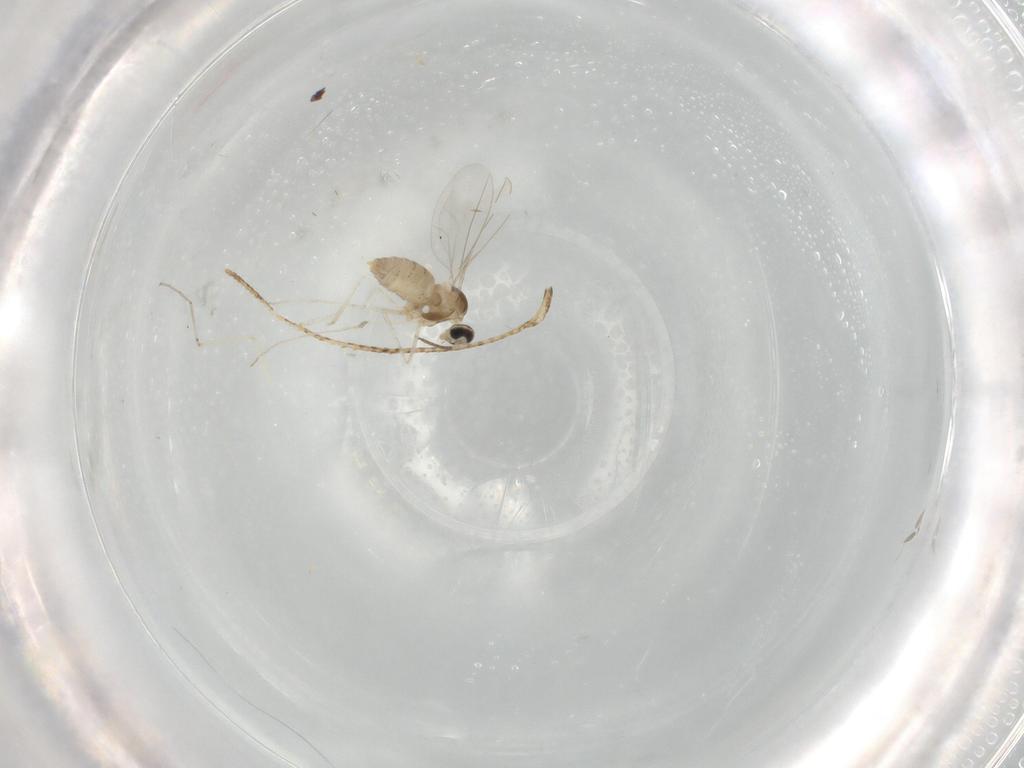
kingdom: Animalia
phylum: Arthropoda
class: Insecta
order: Diptera
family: Cecidomyiidae
